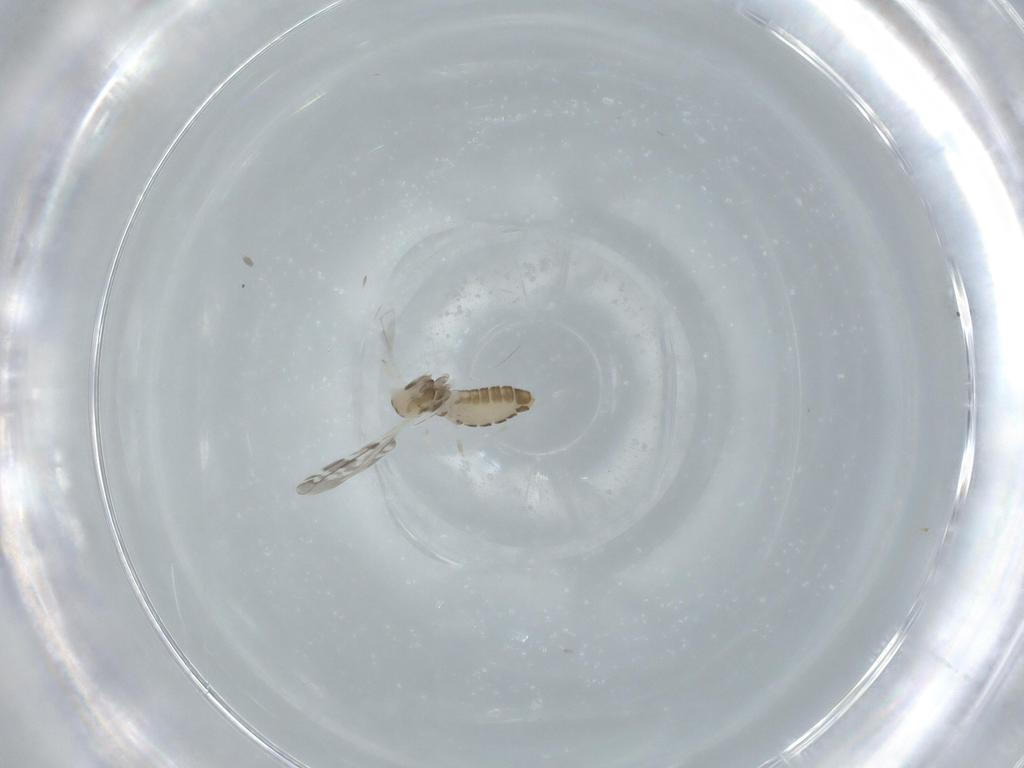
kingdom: Animalia
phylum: Arthropoda
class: Insecta
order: Diptera
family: Cecidomyiidae
